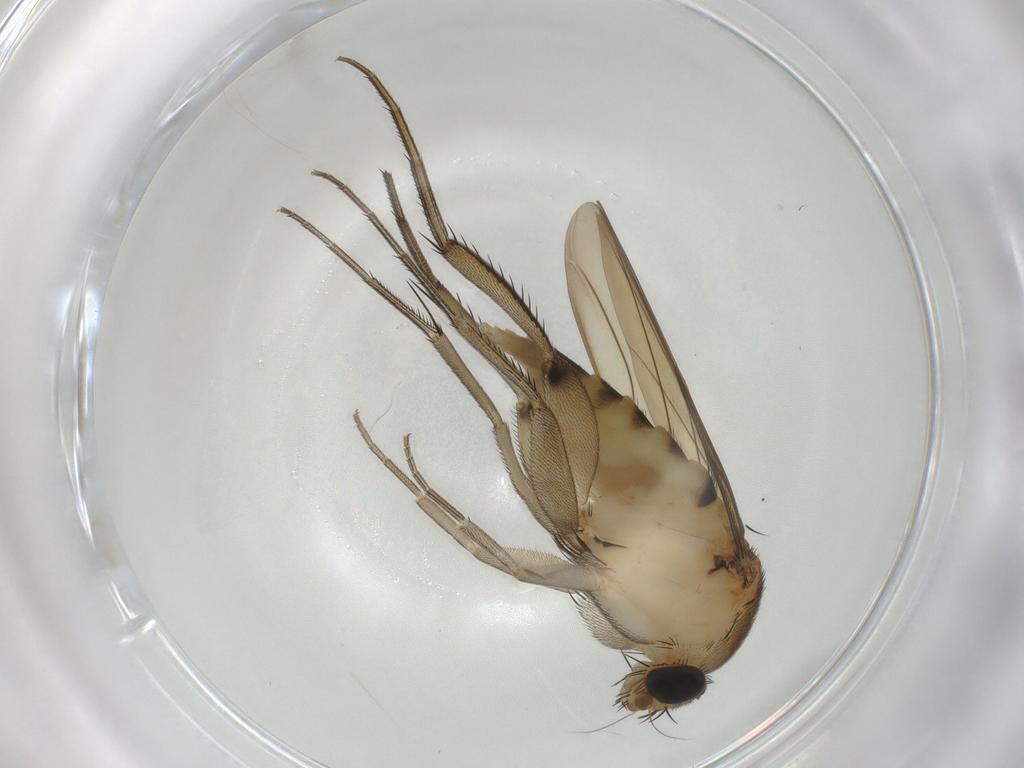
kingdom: Animalia
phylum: Arthropoda
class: Insecta
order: Diptera
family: Phoridae
